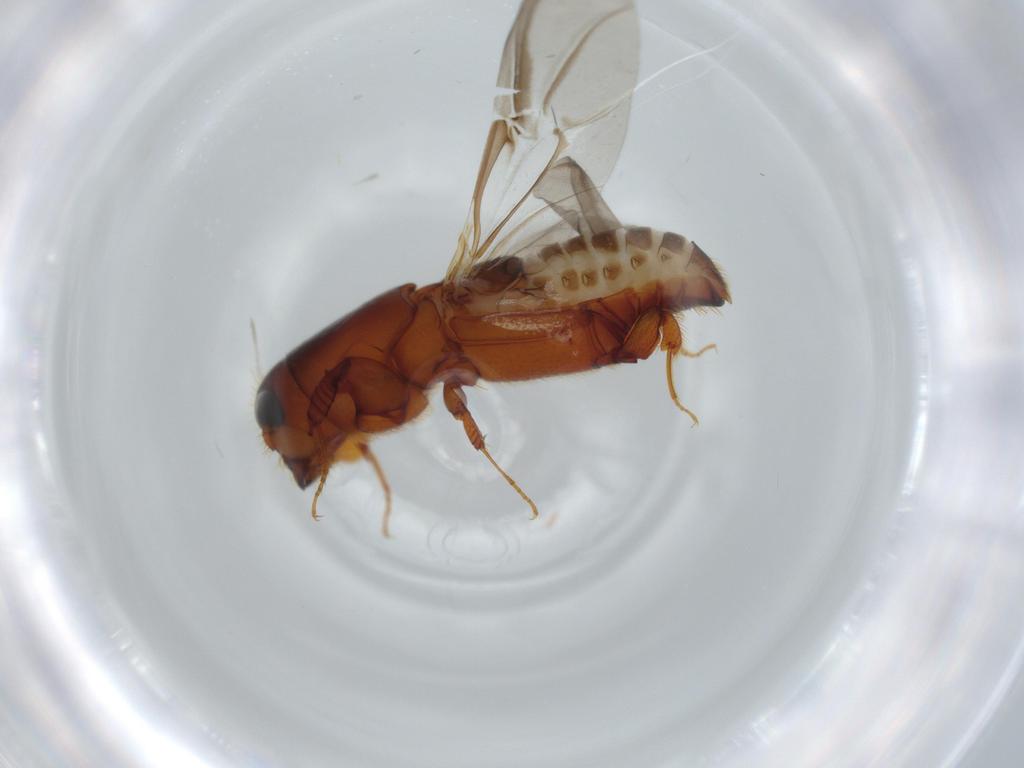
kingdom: Animalia
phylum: Arthropoda
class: Insecta
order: Coleoptera
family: Curculionidae
